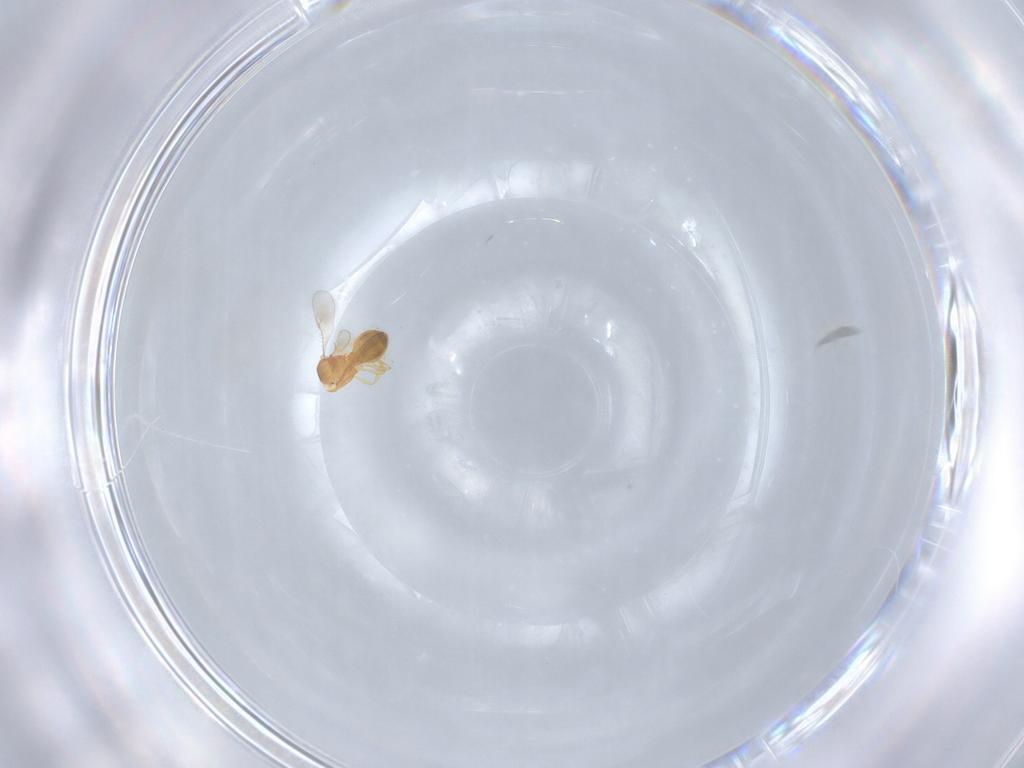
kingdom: Animalia
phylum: Arthropoda
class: Insecta
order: Hymenoptera
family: Scelionidae
